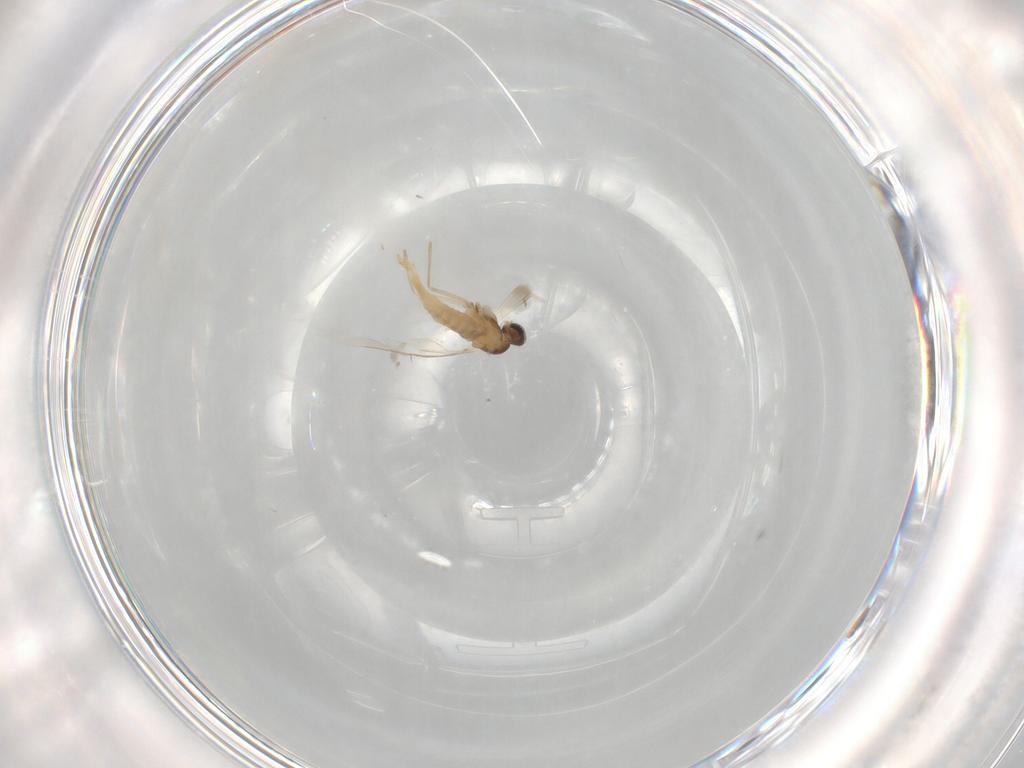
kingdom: Animalia
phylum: Arthropoda
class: Insecta
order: Diptera
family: Cecidomyiidae
